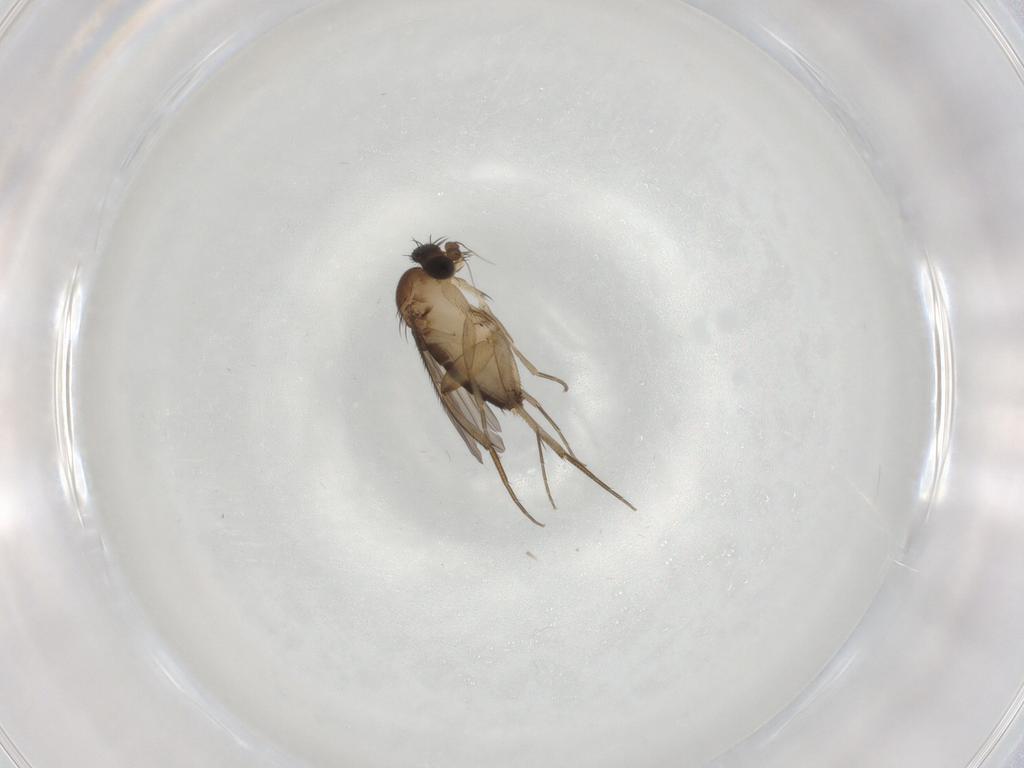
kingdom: Animalia
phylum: Arthropoda
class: Insecta
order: Diptera
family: Phoridae
